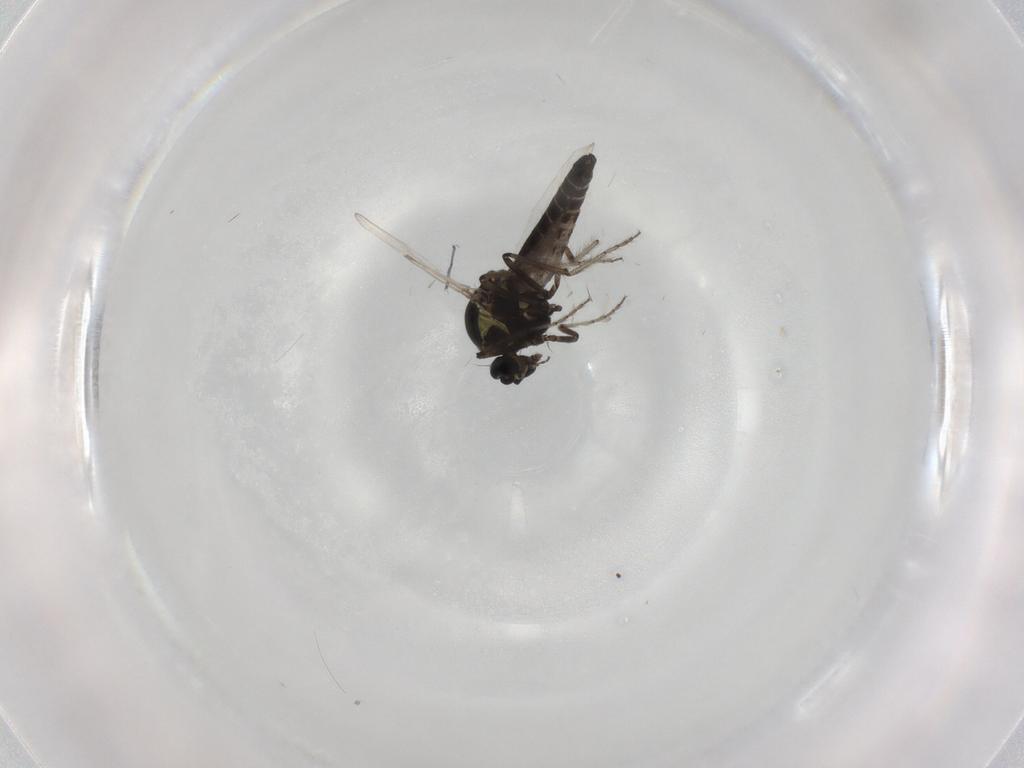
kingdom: Animalia
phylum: Arthropoda
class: Insecta
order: Diptera
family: Ceratopogonidae
